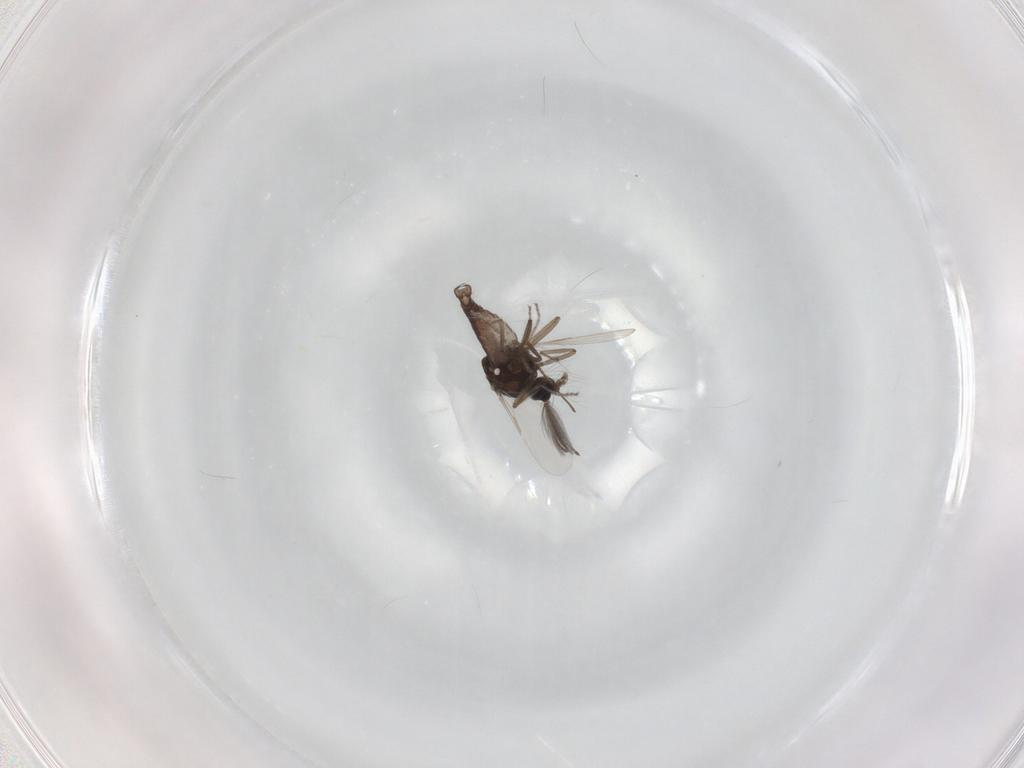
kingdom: Animalia
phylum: Arthropoda
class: Insecta
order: Diptera
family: Ceratopogonidae
